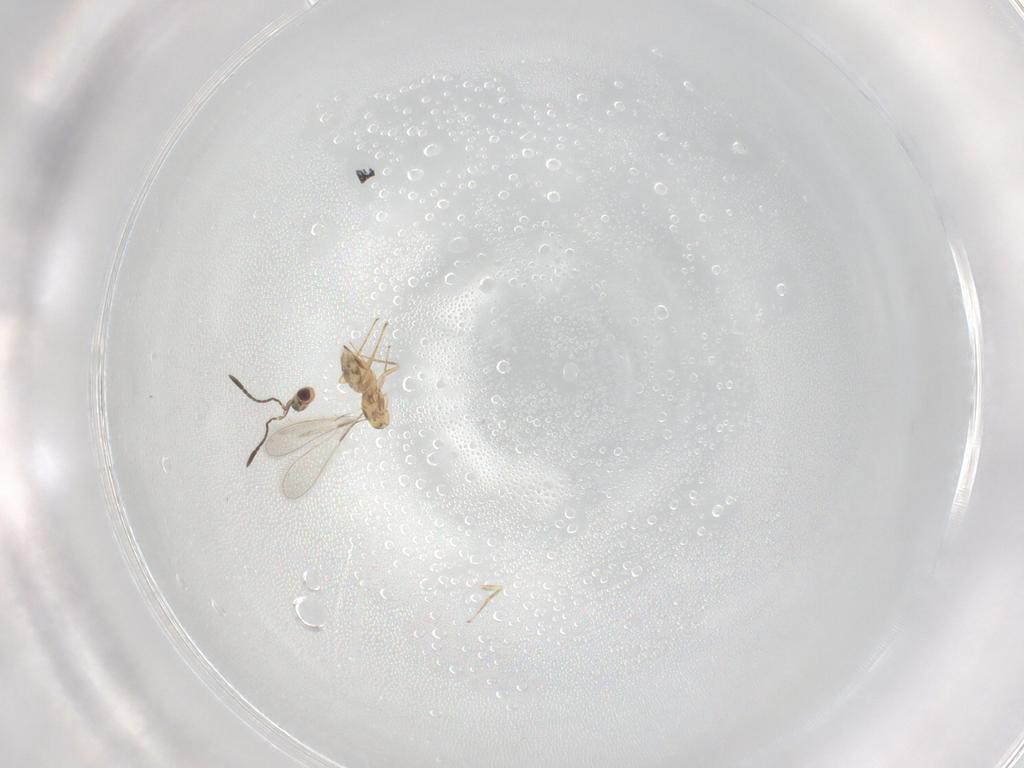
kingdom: Animalia
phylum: Arthropoda
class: Insecta
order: Hymenoptera
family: Mymaridae
